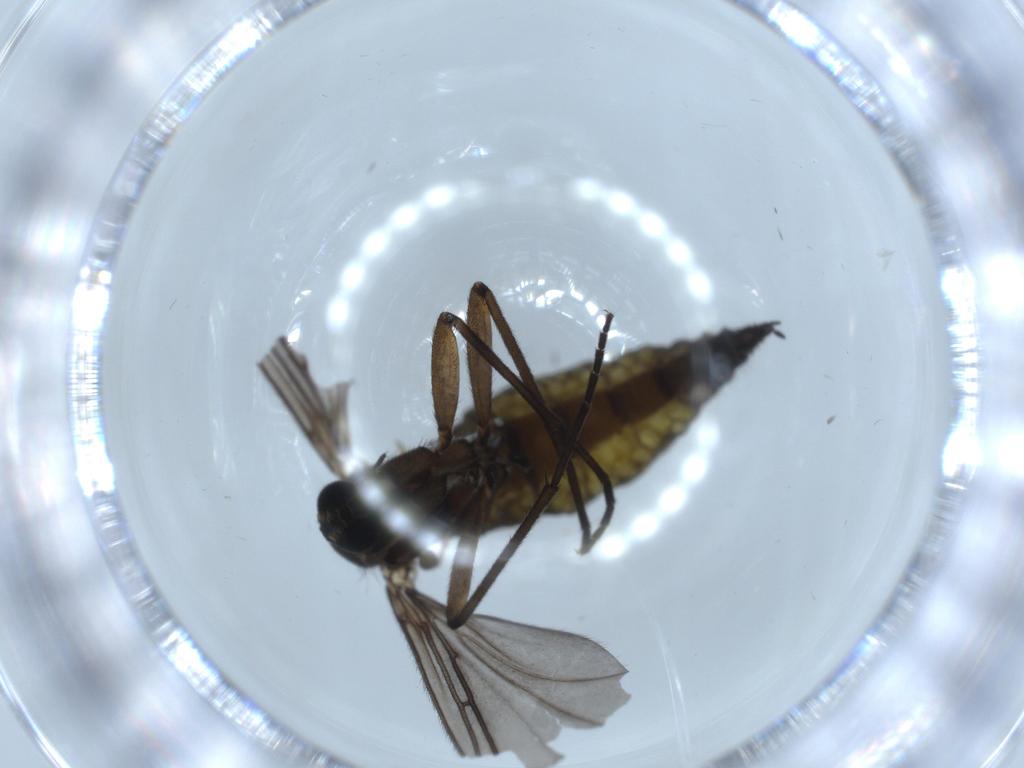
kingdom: Animalia
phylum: Arthropoda
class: Insecta
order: Diptera
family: Sciaridae
